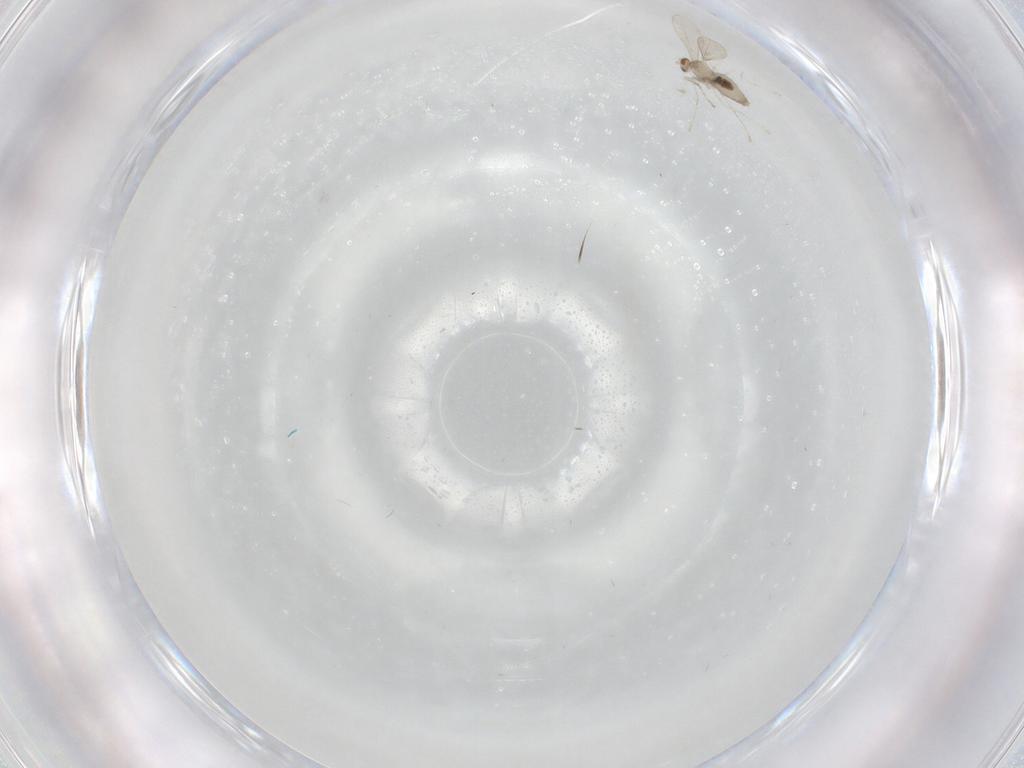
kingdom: Animalia
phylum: Arthropoda
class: Insecta
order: Diptera
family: Cecidomyiidae
